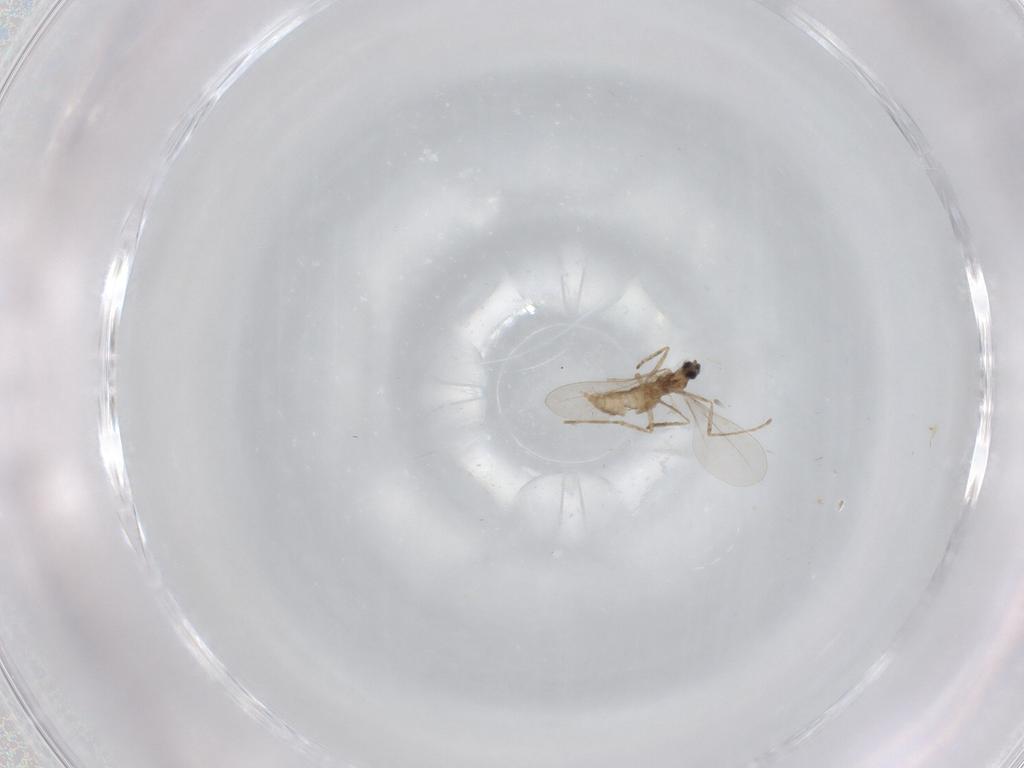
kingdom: Animalia
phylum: Arthropoda
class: Insecta
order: Diptera
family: Cecidomyiidae
